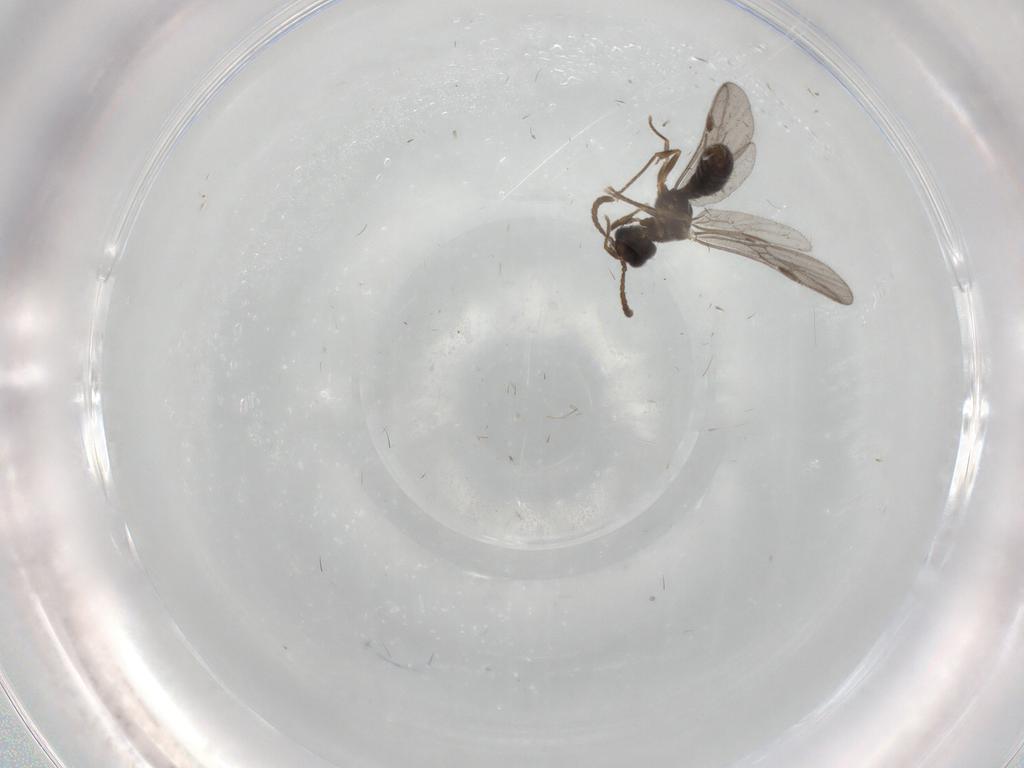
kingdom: Animalia
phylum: Arthropoda
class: Insecta
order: Hymenoptera
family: Formicidae
